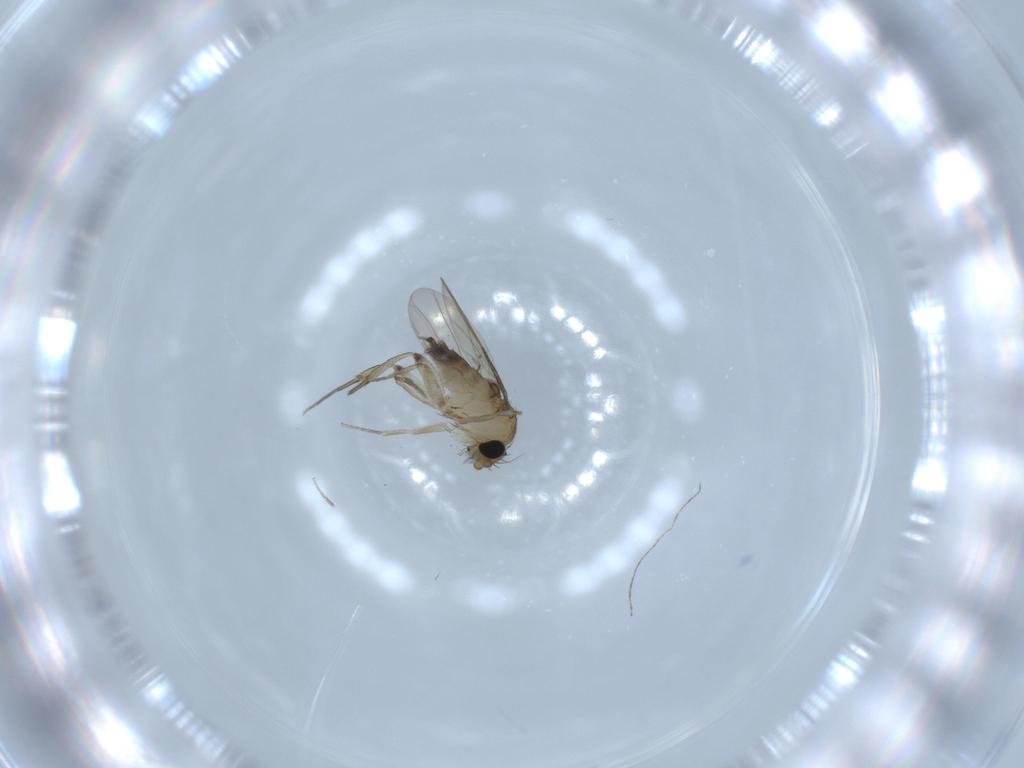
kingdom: Animalia
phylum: Arthropoda
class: Insecta
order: Diptera
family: Phoridae
